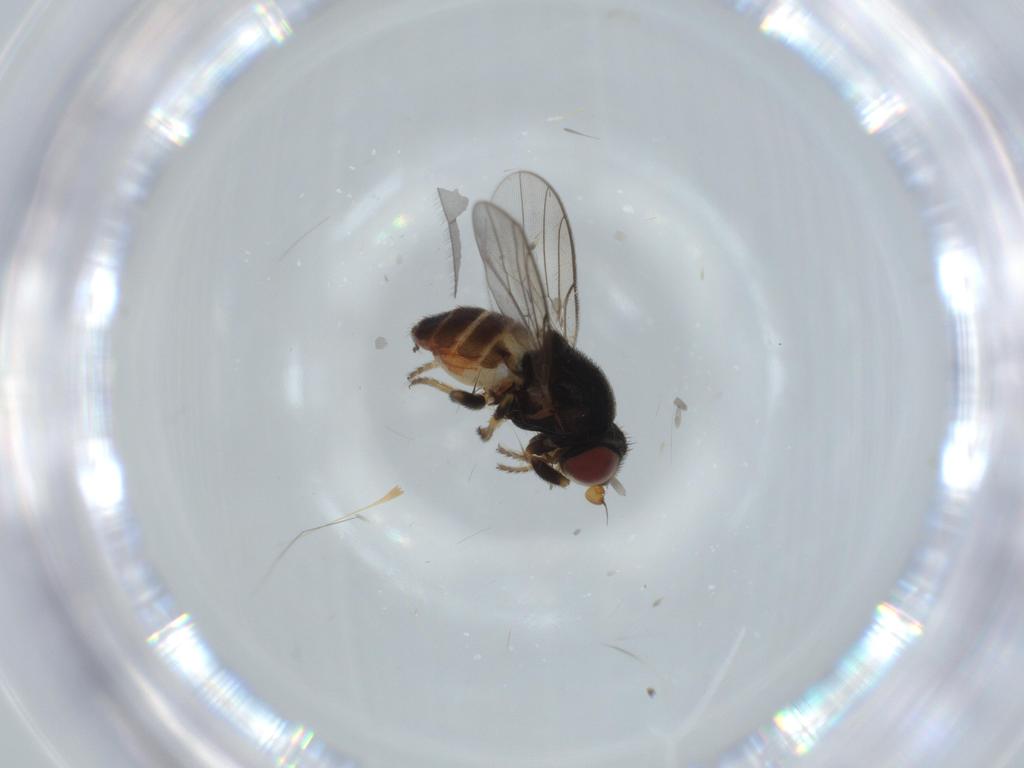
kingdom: Animalia
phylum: Arthropoda
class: Insecta
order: Diptera
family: Chloropidae
